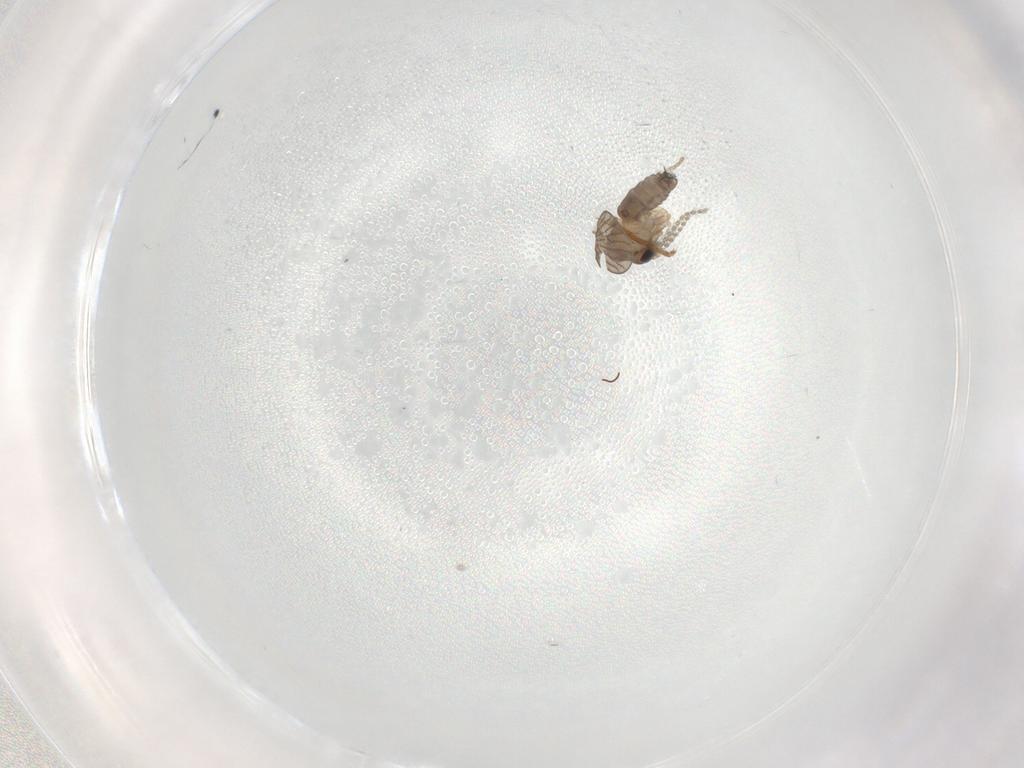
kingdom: Animalia
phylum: Arthropoda
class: Insecta
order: Diptera
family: Psychodidae
